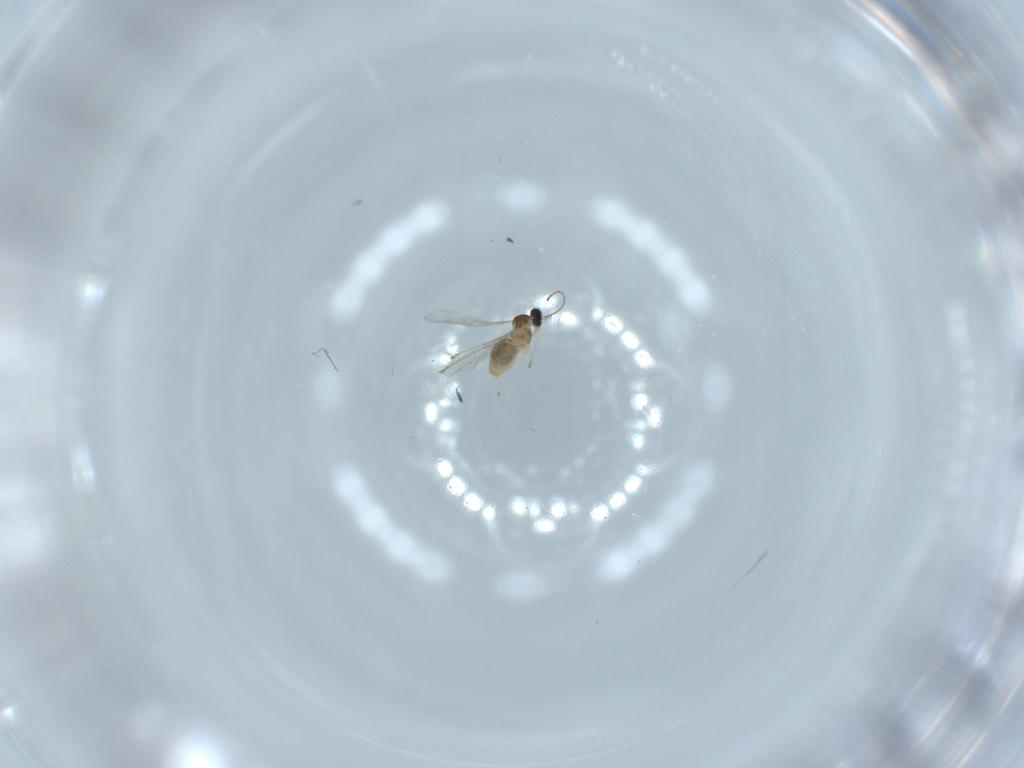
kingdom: Animalia
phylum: Arthropoda
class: Insecta
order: Diptera
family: Cecidomyiidae
